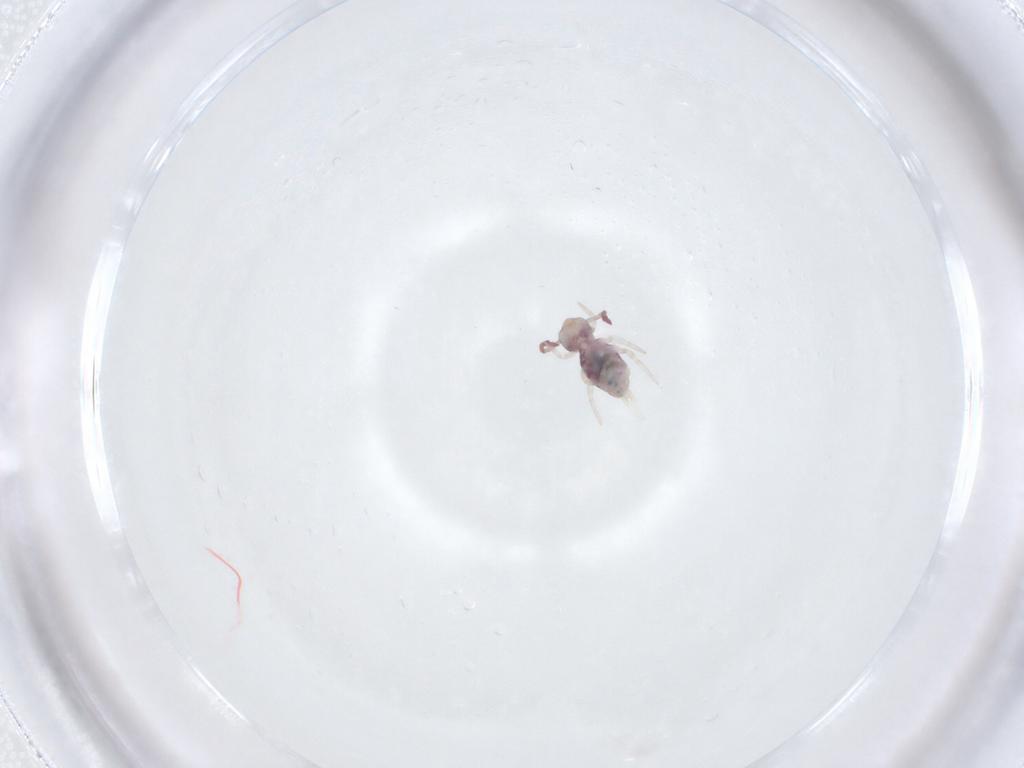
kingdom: Animalia
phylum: Arthropoda
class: Collembola
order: Symphypleona
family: Dicyrtomidae
